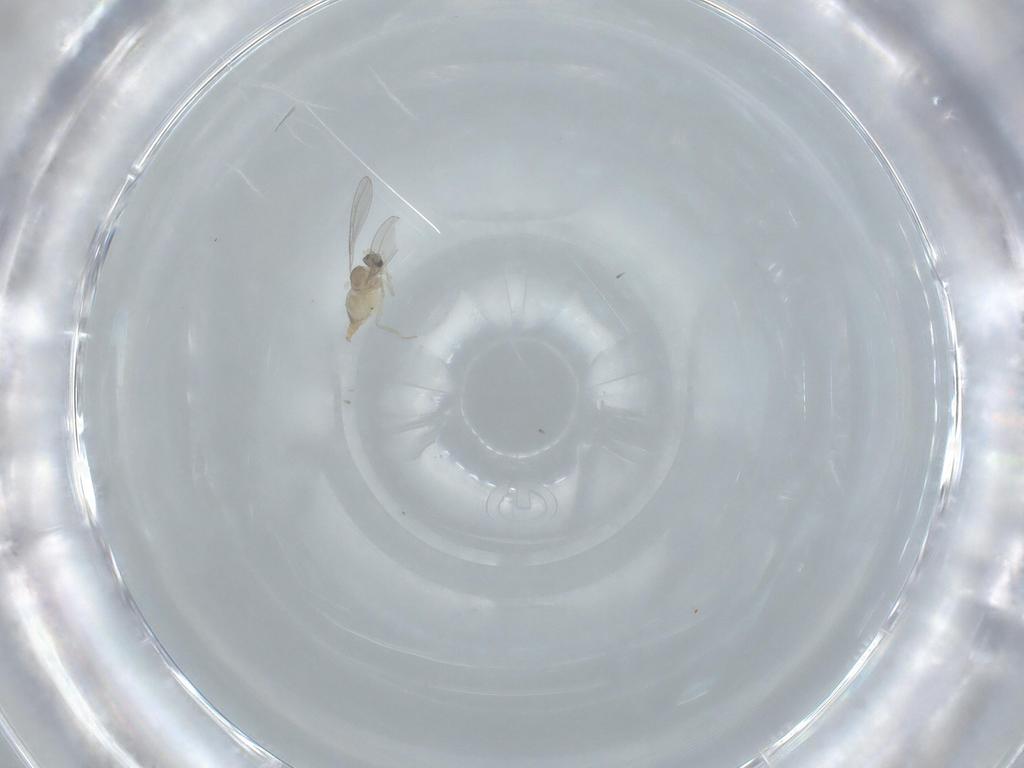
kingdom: Animalia
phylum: Arthropoda
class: Insecta
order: Diptera
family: Cecidomyiidae
